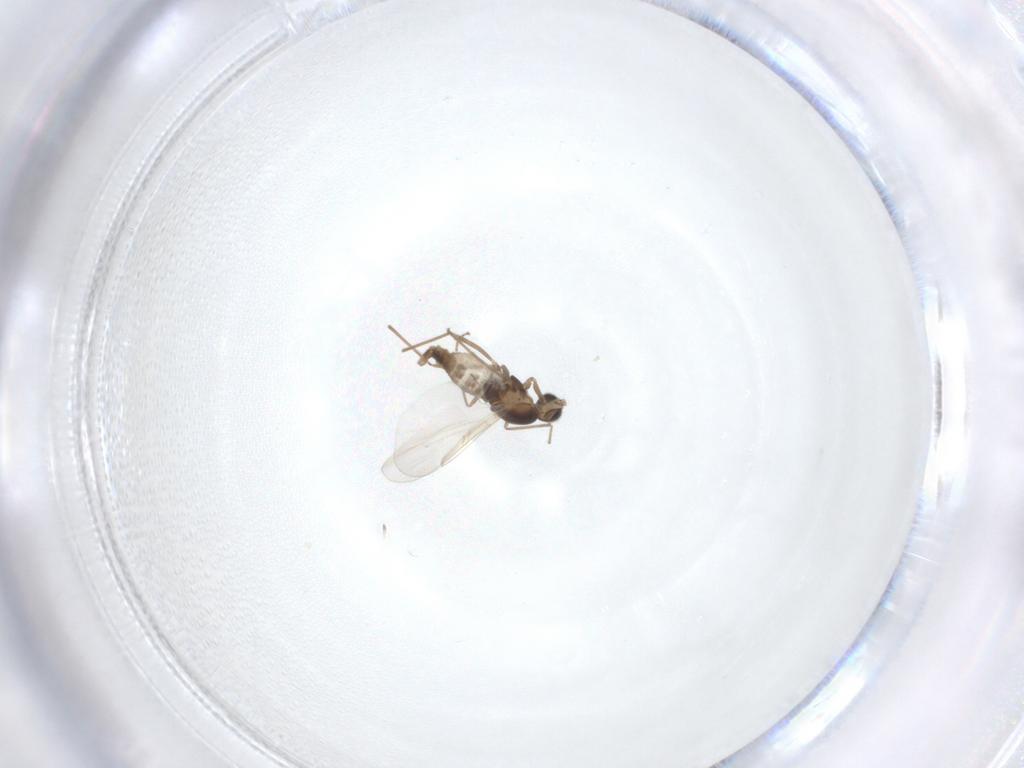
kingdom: Animalia
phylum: Arthropoda
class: Insecta
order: Diptera
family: Cecidomyiidae
